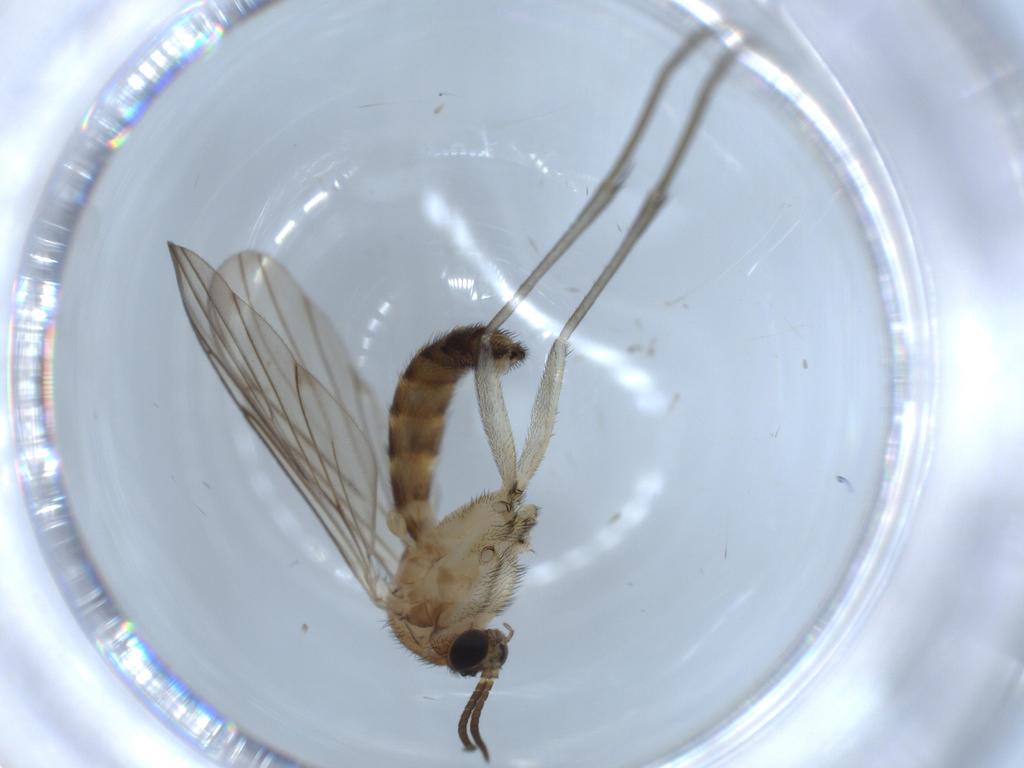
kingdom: Animalia
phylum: Arthropoda
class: Insecta
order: Diptera
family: Keroplatidae
